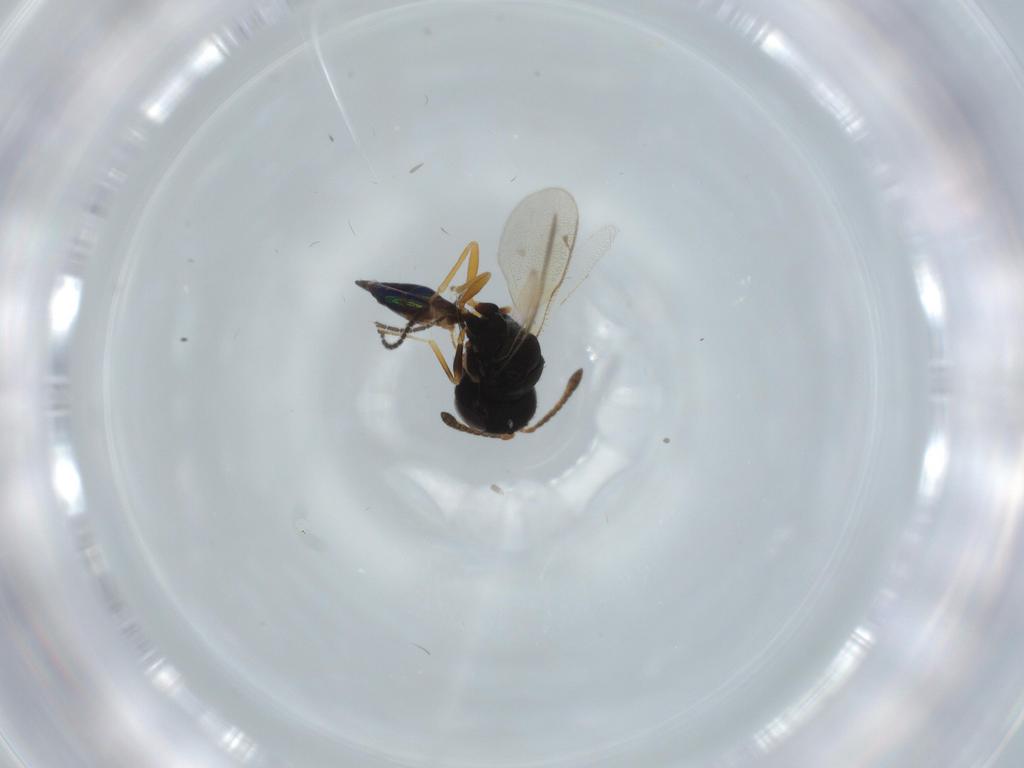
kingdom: Animalia
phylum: Arthropoda
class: Insecta
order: Hymenoptera
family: Pteromalidae
